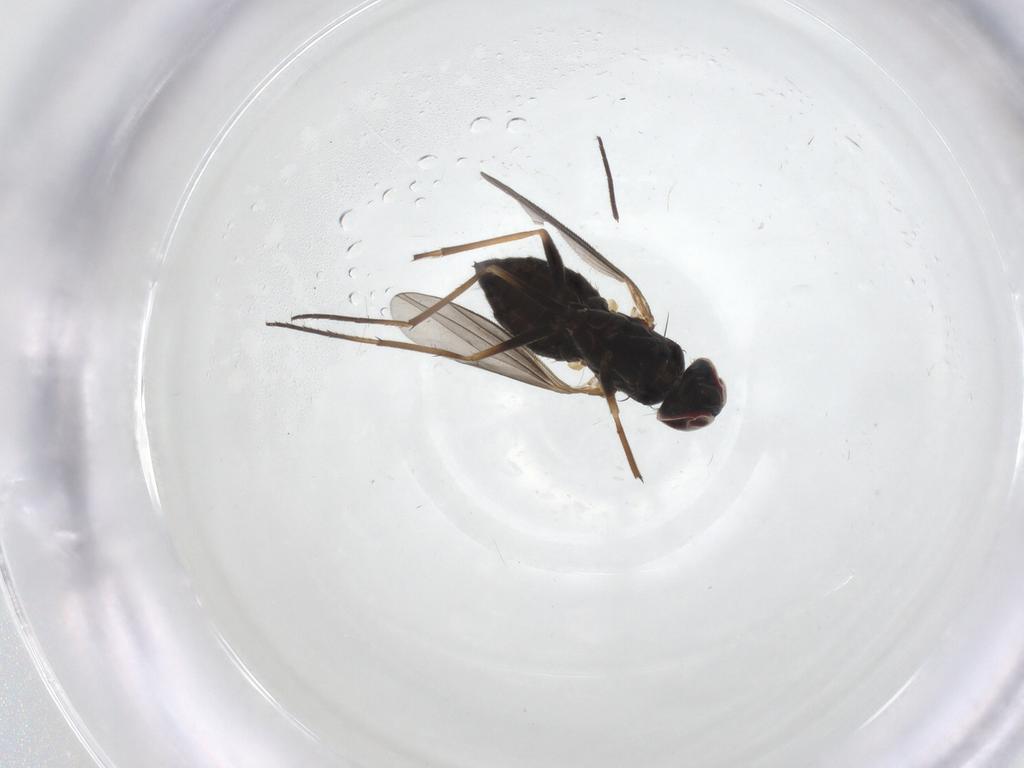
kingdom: Animalia
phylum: Arthropoda
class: Insecta
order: Diptera
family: Dolichopodidae
